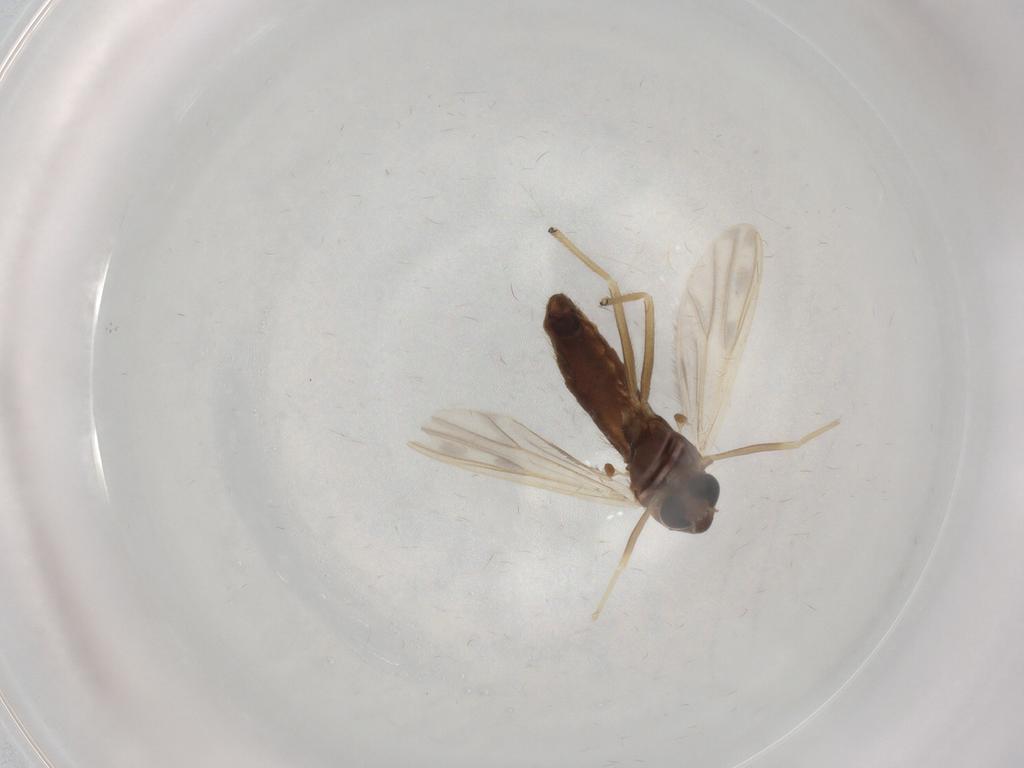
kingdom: Animalia
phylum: Arthropoda
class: Insecta
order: Diptera
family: Chironomidae
